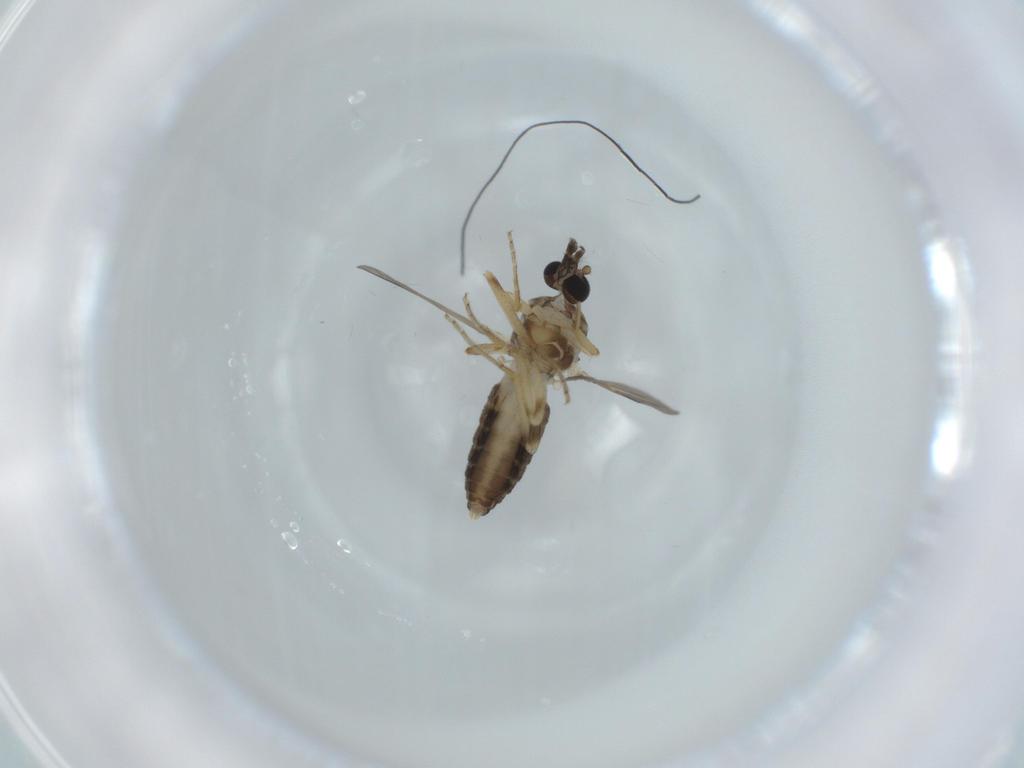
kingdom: Animalia
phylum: Arthropoda
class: Insecta
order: Diptera
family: Ceratopogonidae
